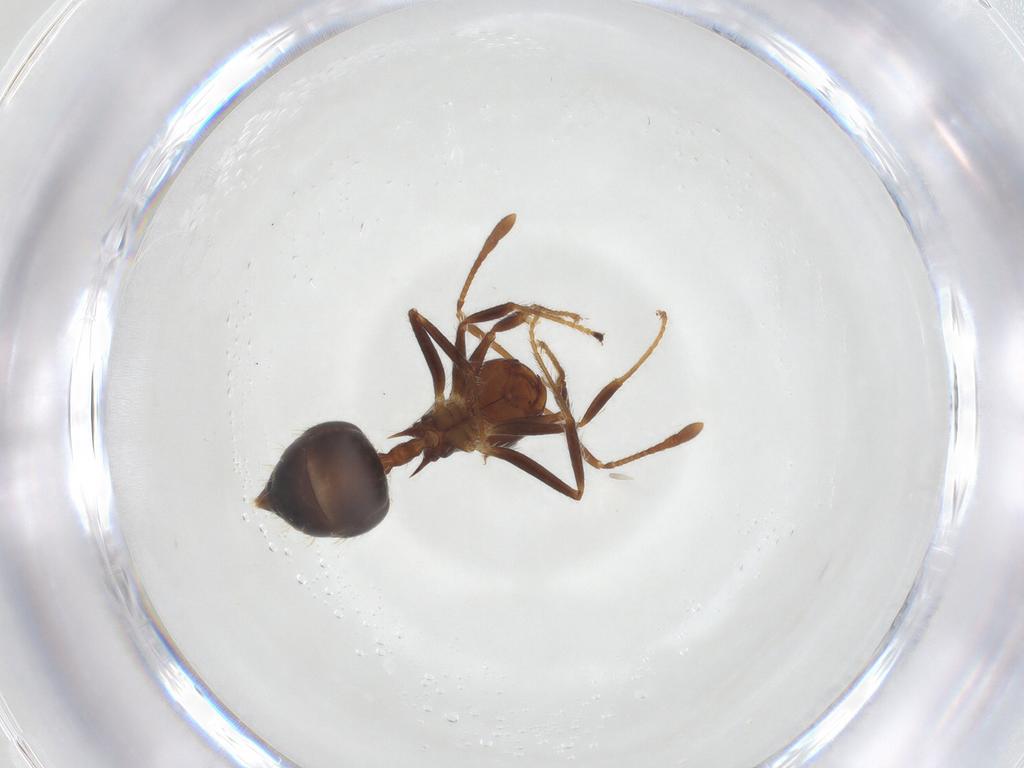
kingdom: Animalia
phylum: Arthropoda
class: Insecta
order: Hymenoptera
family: Formicidae
